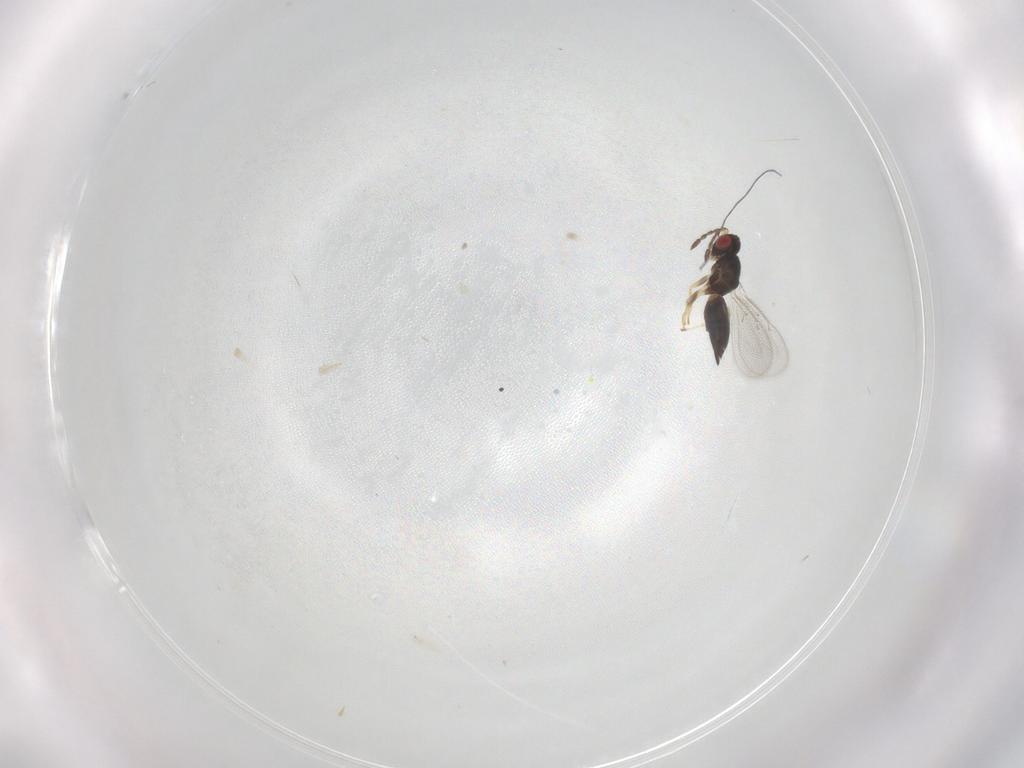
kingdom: Animalia
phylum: Arthropoda
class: Insecta
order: Hymenoptera
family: Eulophidae
